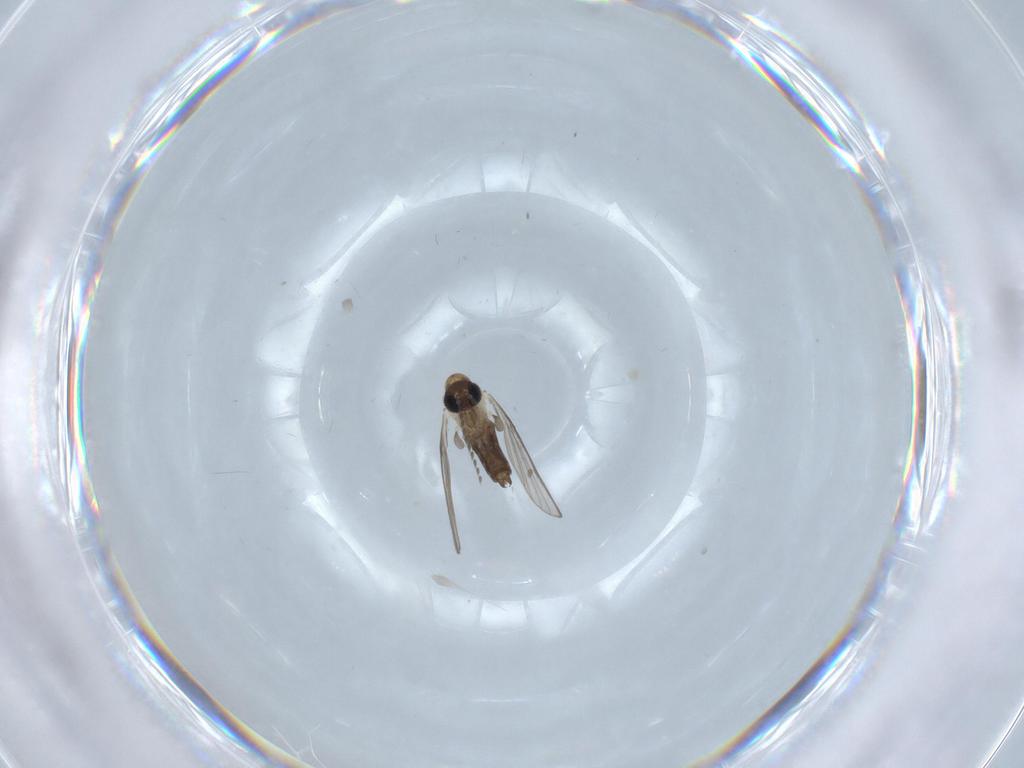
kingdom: Animalia
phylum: Arthropoda
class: Insecta
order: Diptera
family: Psychodidae
